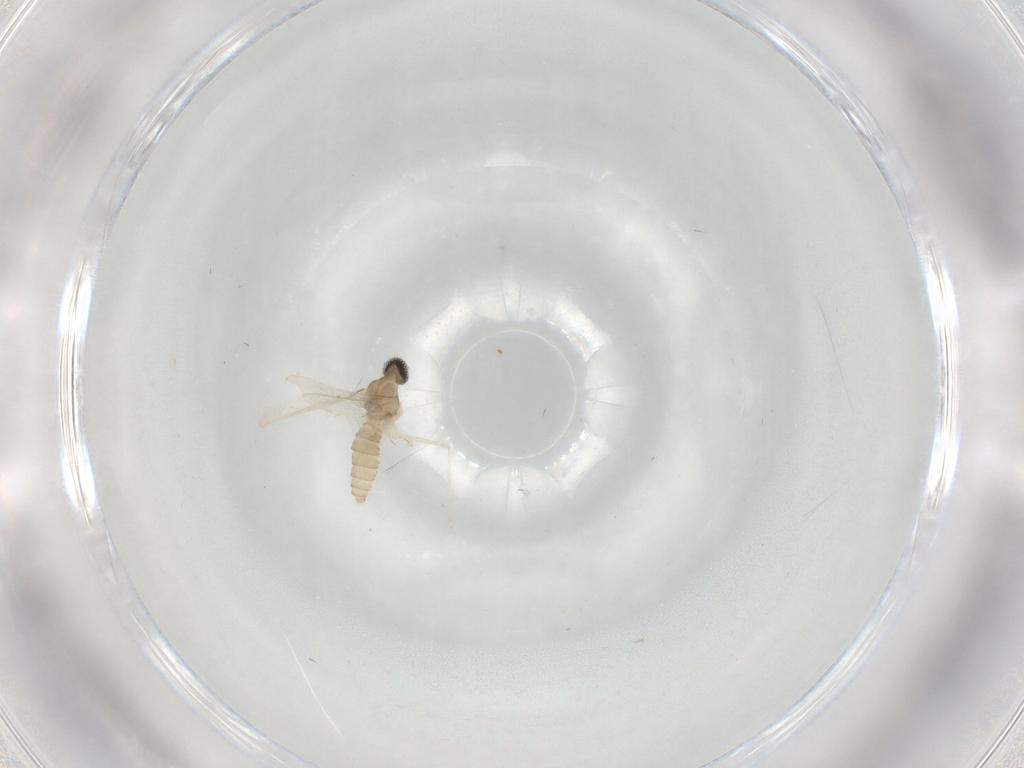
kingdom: Animalia
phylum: Arthropoda
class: Insecta
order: Diptera
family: Cecidomyiidae
